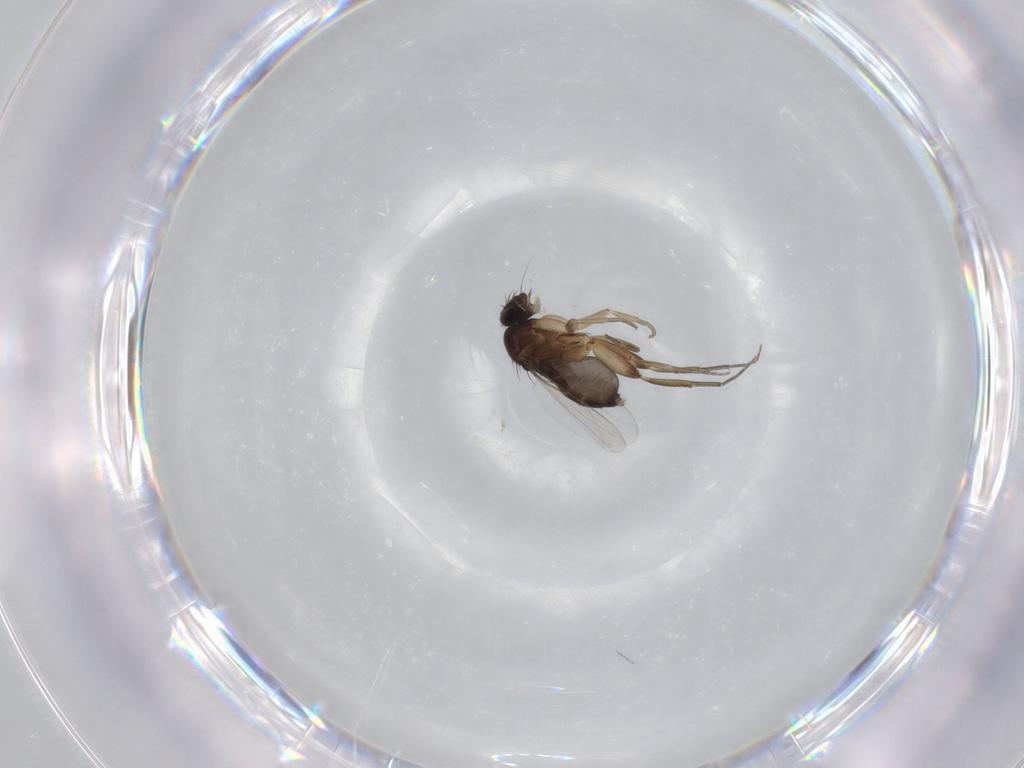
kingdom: Animalia
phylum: Arthropoda
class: Insecta
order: Diptera
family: Phoridae
